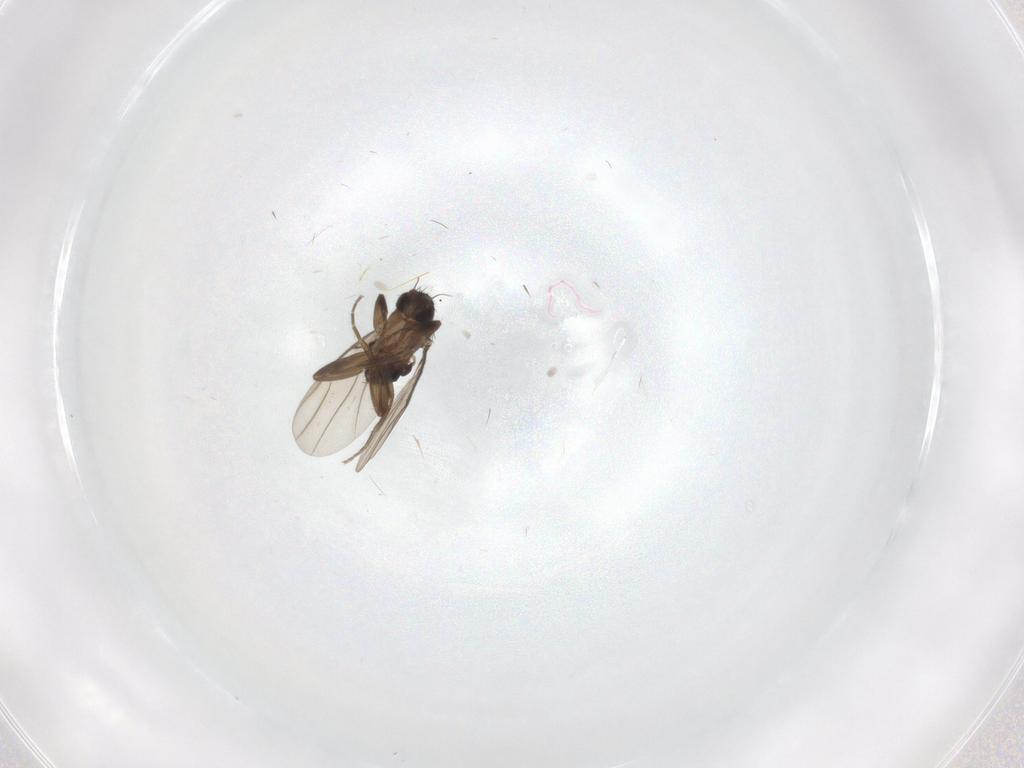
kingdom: Animalia
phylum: Arthropoda
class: Insecta
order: Diptera
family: Phoridae
